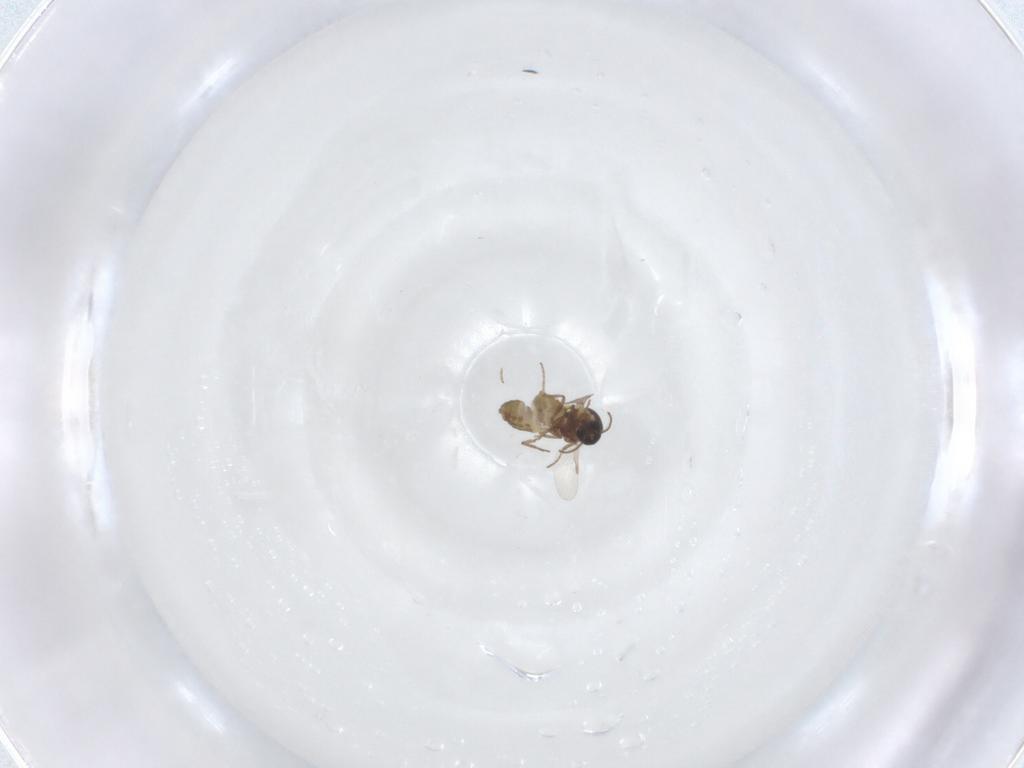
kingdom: Animalia
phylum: Arthropoda
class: Insecta
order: Diptera
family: Ceratopogonidae
